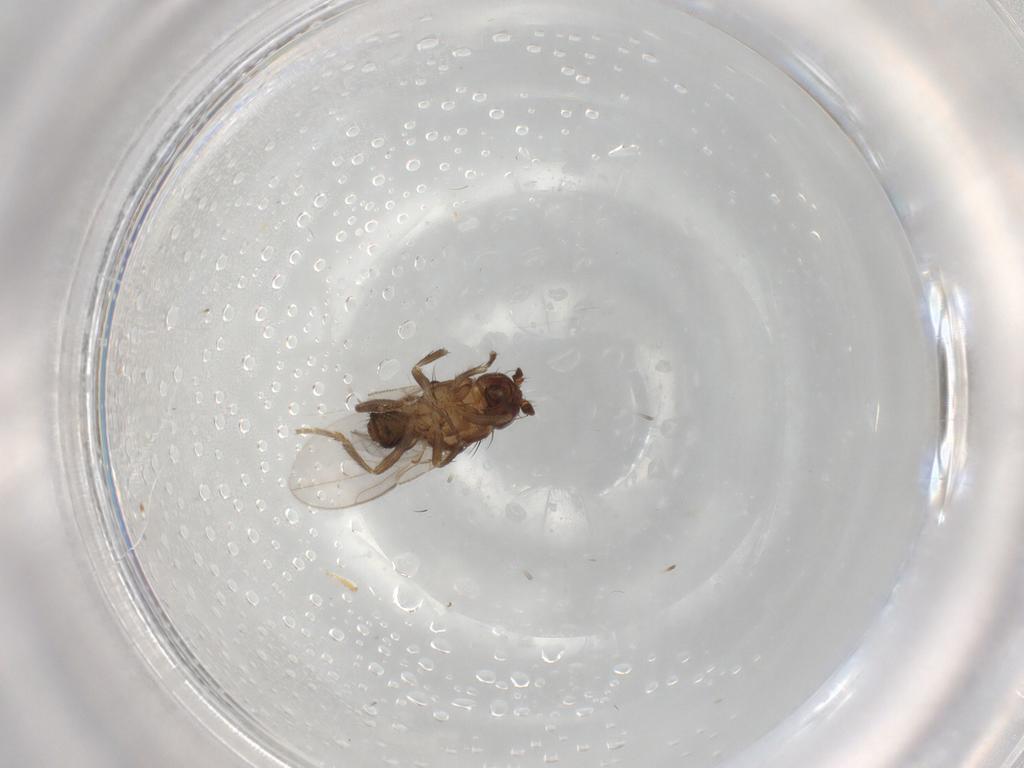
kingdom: Animalia
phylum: Arthropoda
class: Insecta
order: Diptera
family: Sphaeroceridae
